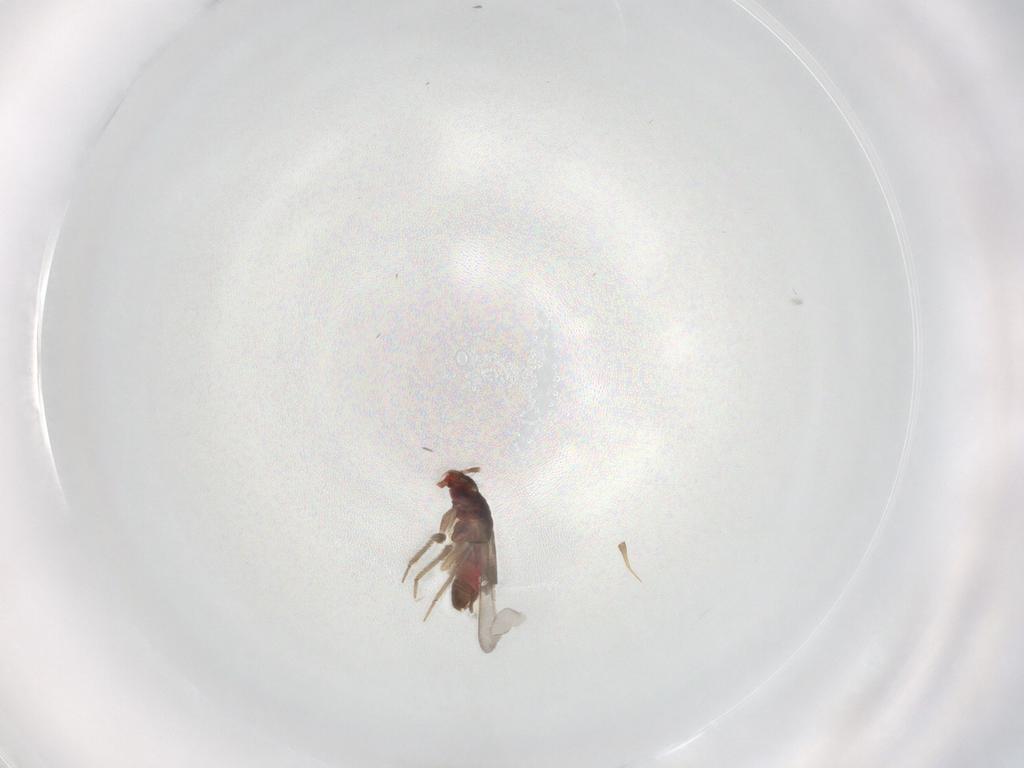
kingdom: Animalia
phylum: Arthropoda
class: Insecta
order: Hemiptera
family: Ceratocombidae
